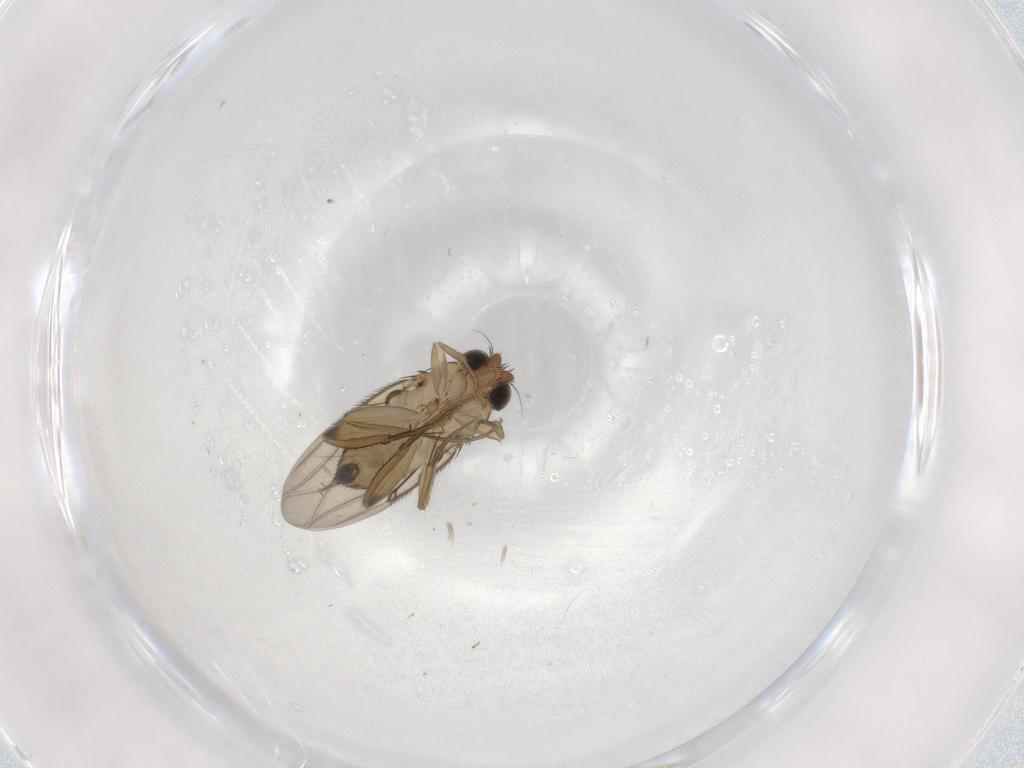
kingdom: Animalia
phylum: Arthropoda
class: Insecta
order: Diptera
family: Phoridae
